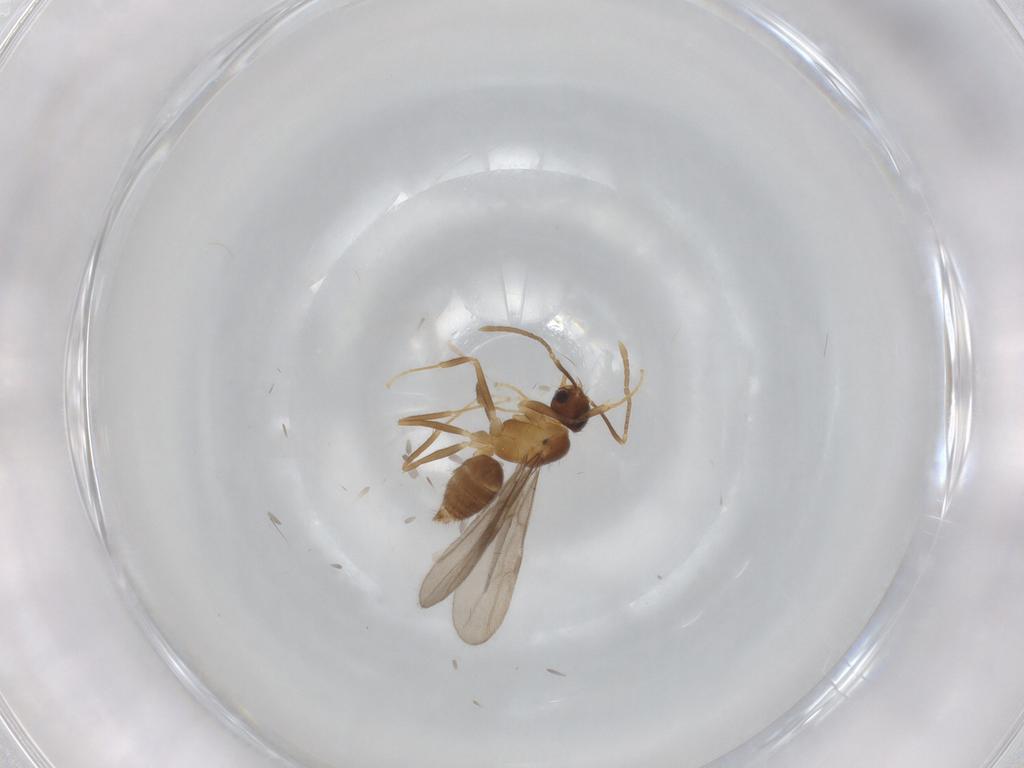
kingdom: Animalia
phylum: Arthropoda
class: Insecta
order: Hymenoptera
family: Formicidae
